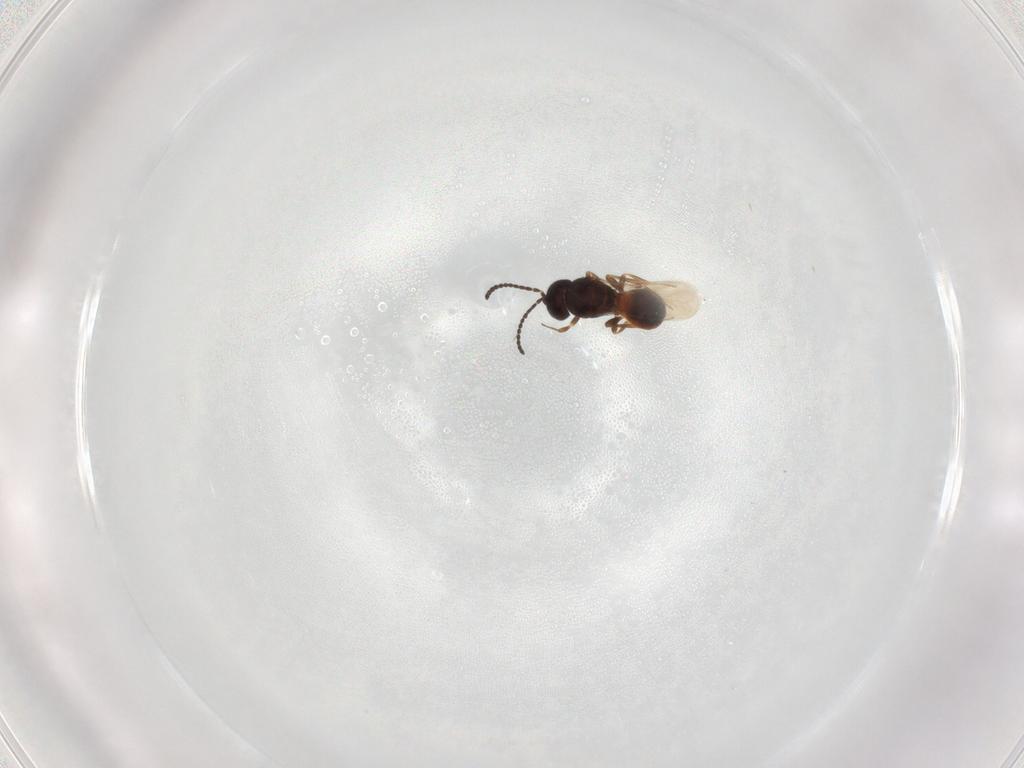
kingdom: Animalia
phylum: Arthropoda
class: Insecta
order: Hymenoptera
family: Scelionidae
